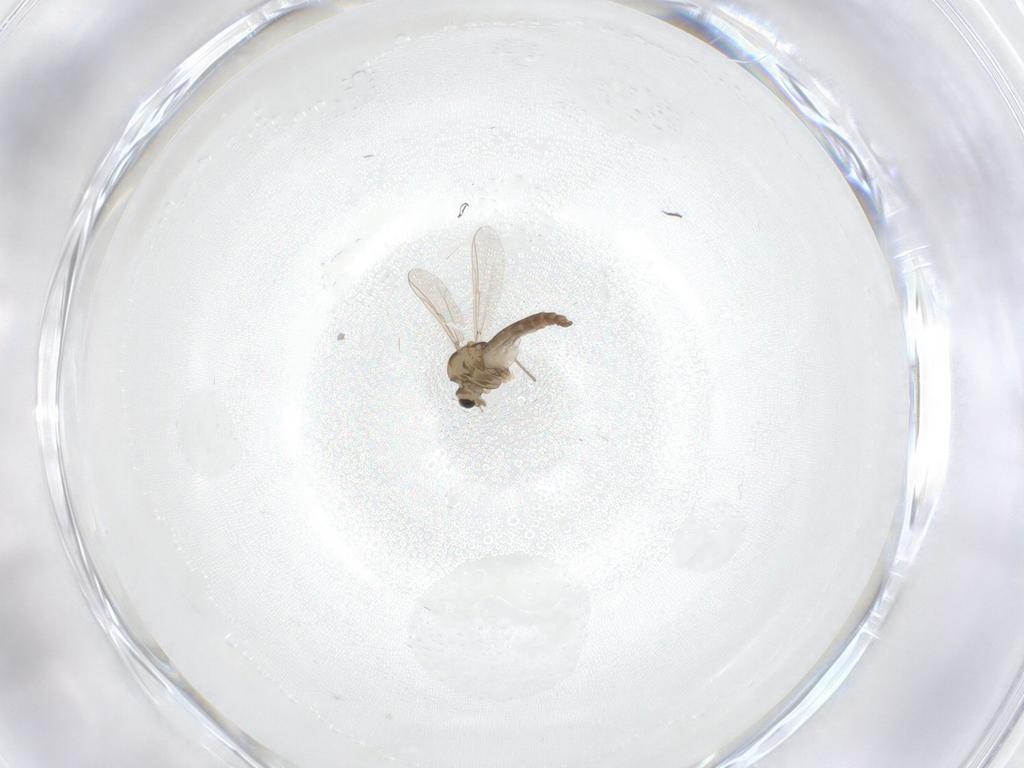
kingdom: Animalia
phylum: Arthropoda
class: Insecta
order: Diptera
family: Chironomidae
